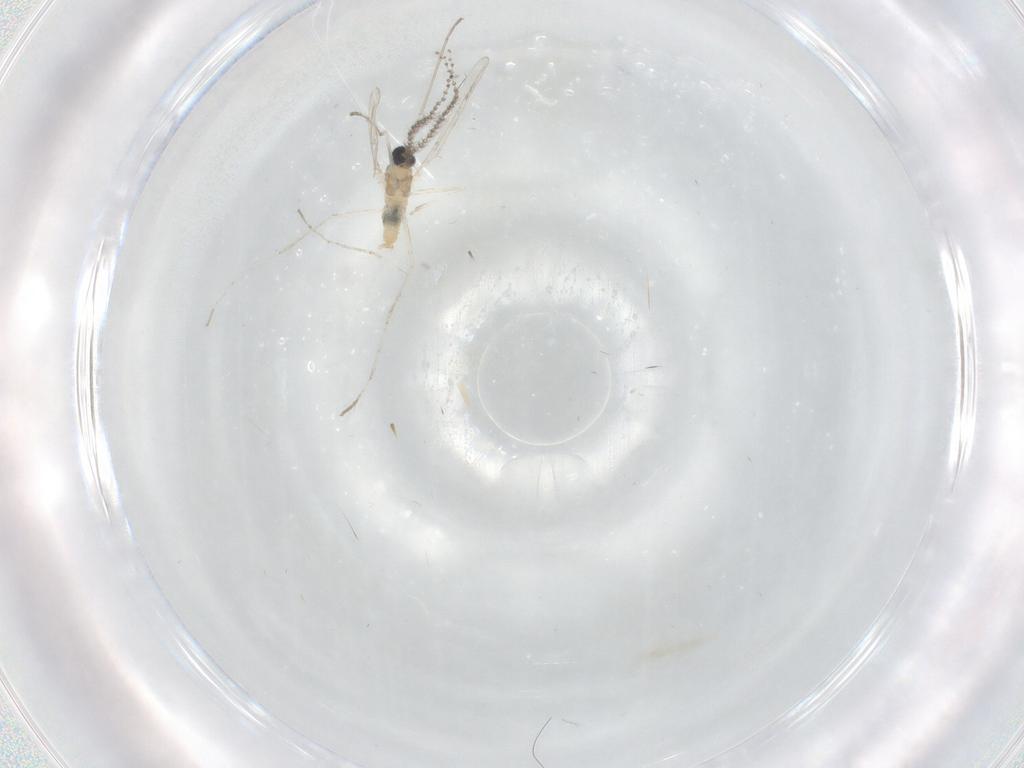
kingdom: Animalia
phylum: Arthropoda
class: Insecta
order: Diptera
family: Cecidomyiidae
